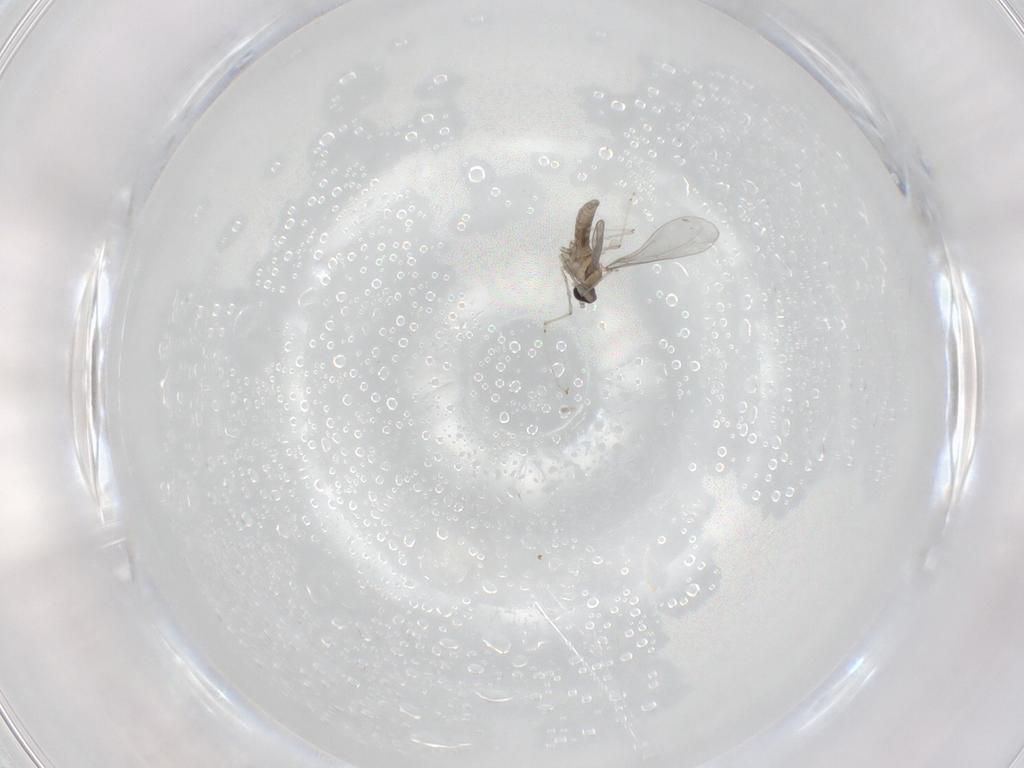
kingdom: Animalia
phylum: Arthropoda
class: Insecta
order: Diptera
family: Cecidomyiidae
